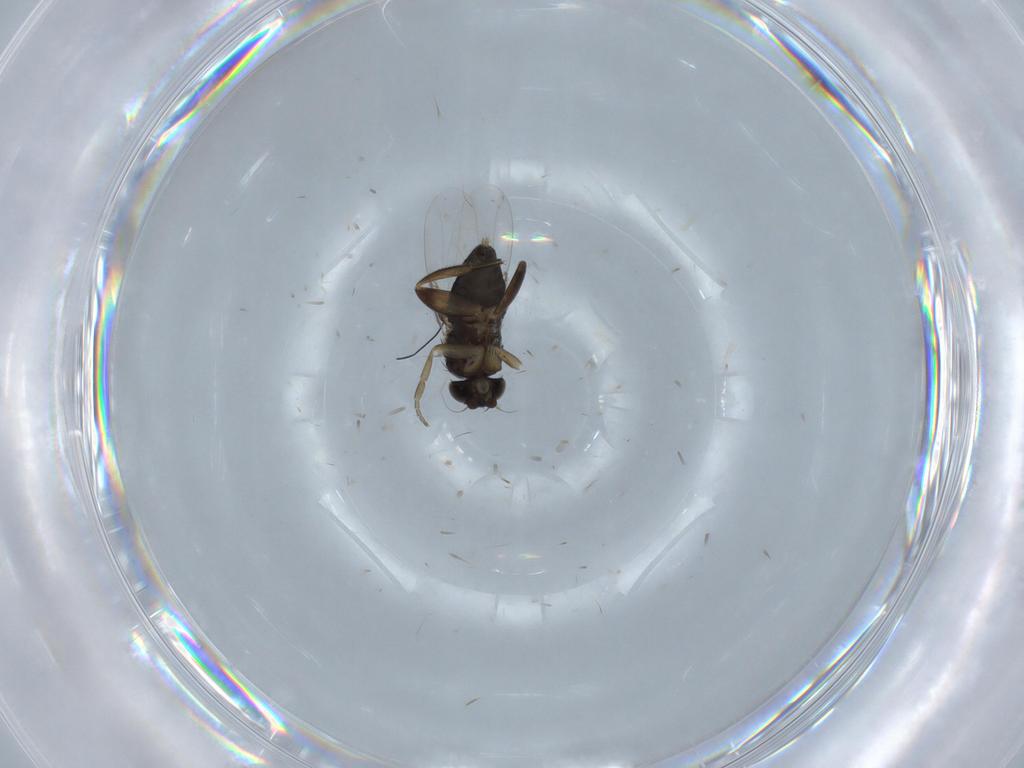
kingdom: Animalia
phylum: Arthropoda
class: Insecta
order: Diptera
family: Phoridae
